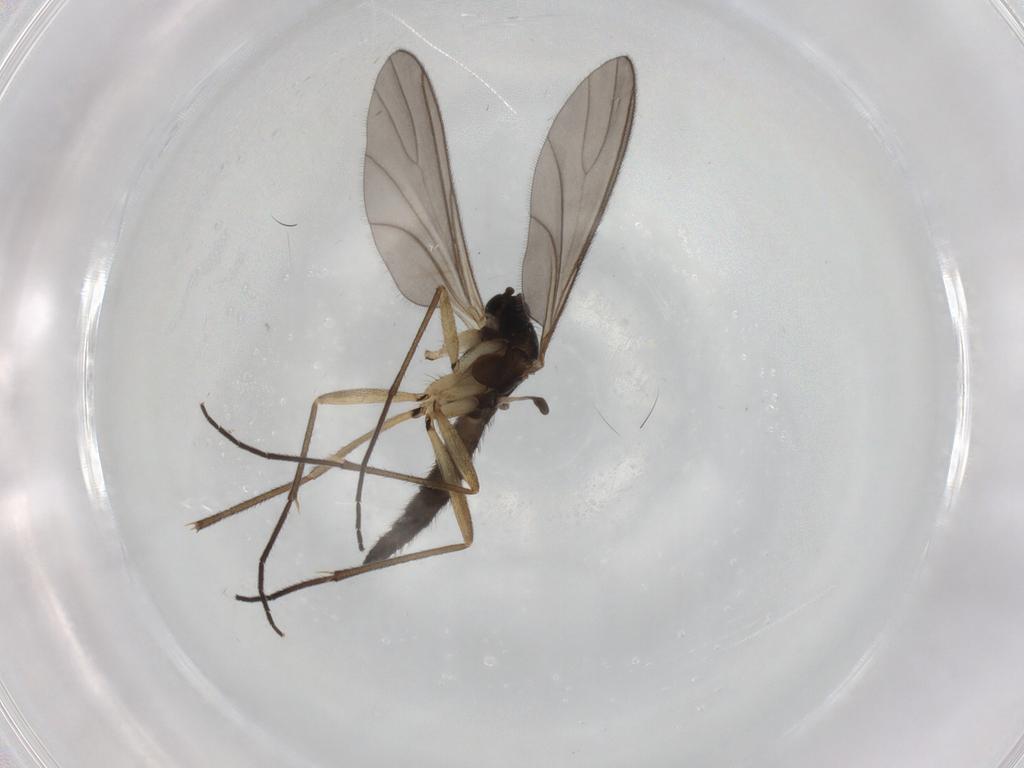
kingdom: Animalia
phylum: Arthropoda
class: Insecta
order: Diptera
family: Sciaridae
